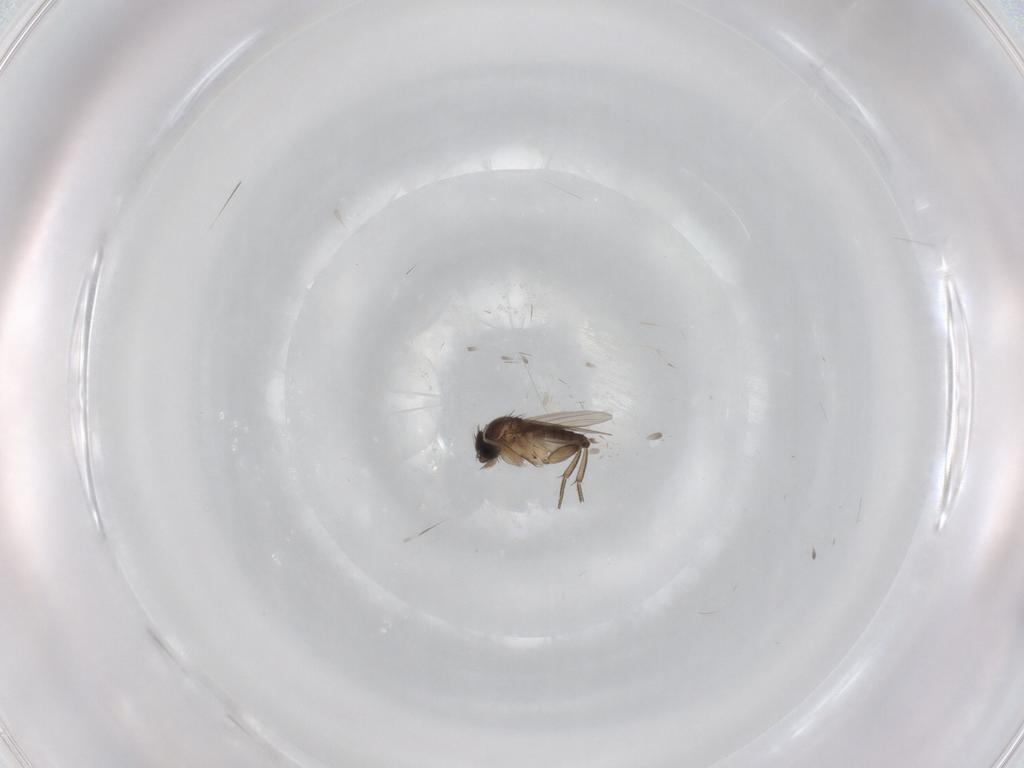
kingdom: Animalia
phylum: Arthropoda
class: Insecta
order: Diptera
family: Phoridae
